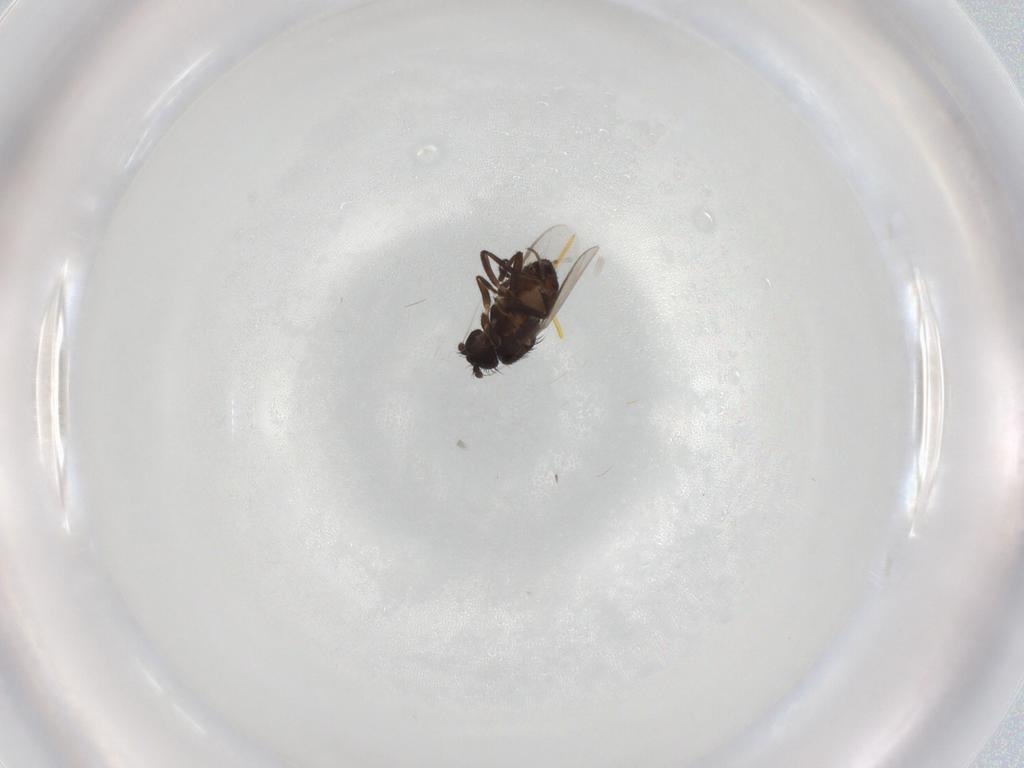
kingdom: Animalia
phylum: Arthropoda
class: Insecta
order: Diptera
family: Sphaeroceridae
